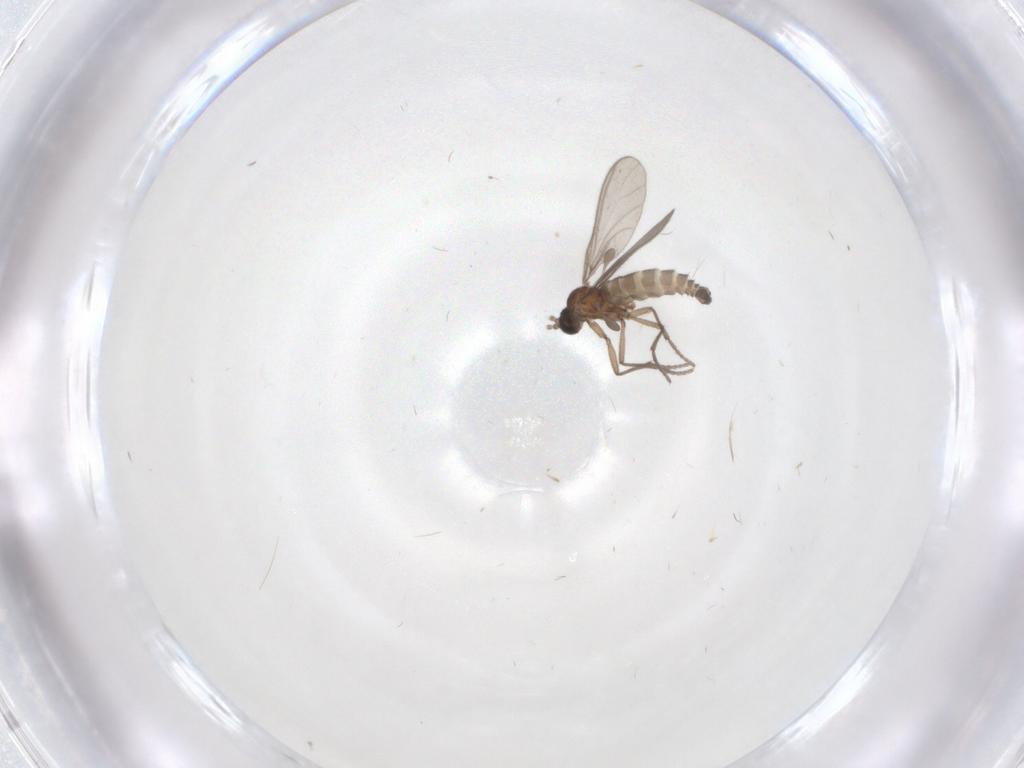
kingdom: Animalia
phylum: Arthropoda
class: Insecta
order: Diptera
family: Sciaridae
